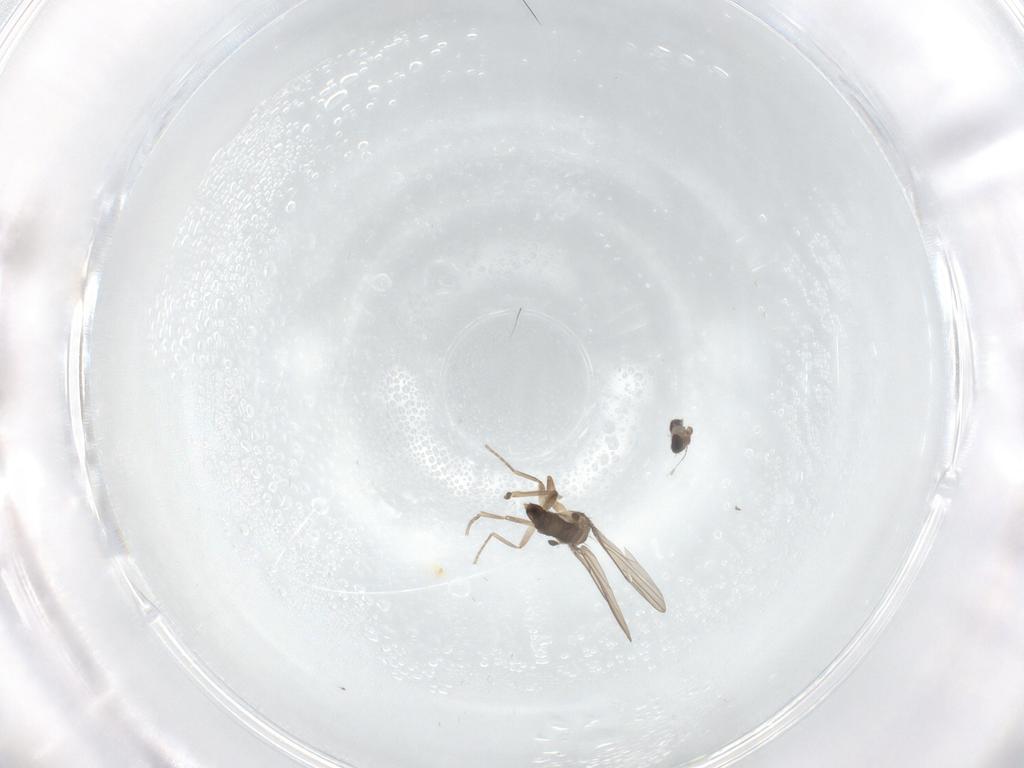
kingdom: Animalia
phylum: Arthropoda
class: Insecta
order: Diptera
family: Phoridae
